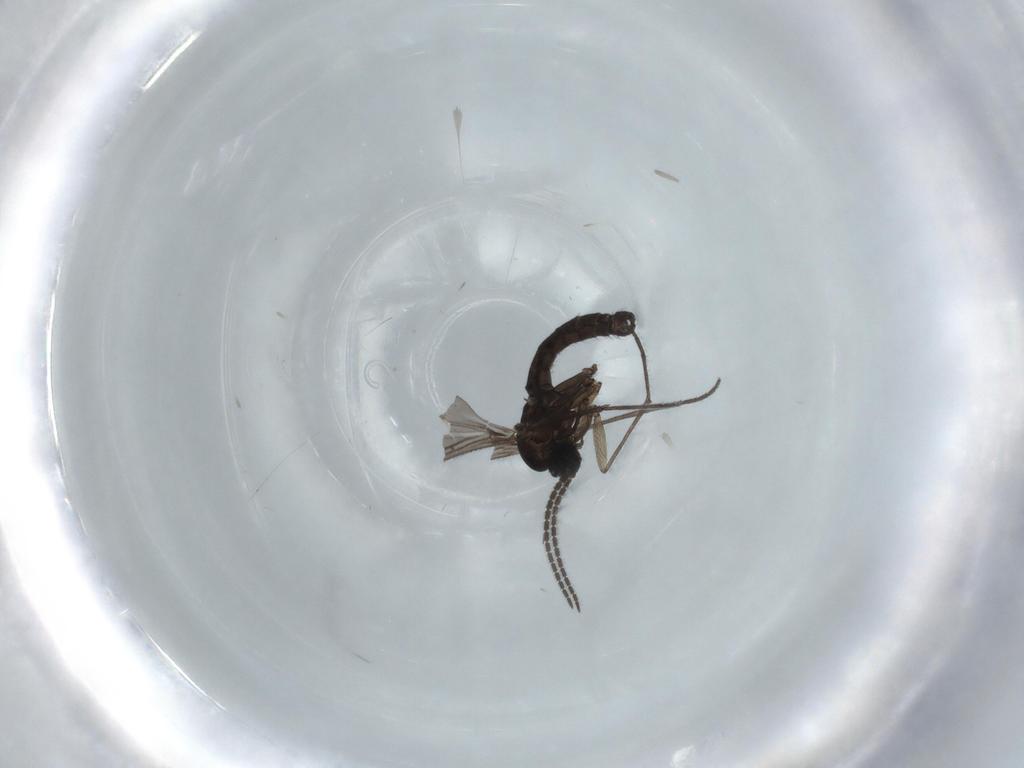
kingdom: Animalia
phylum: Arthropoda
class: Insecta
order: Diptera
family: Sciaridae
